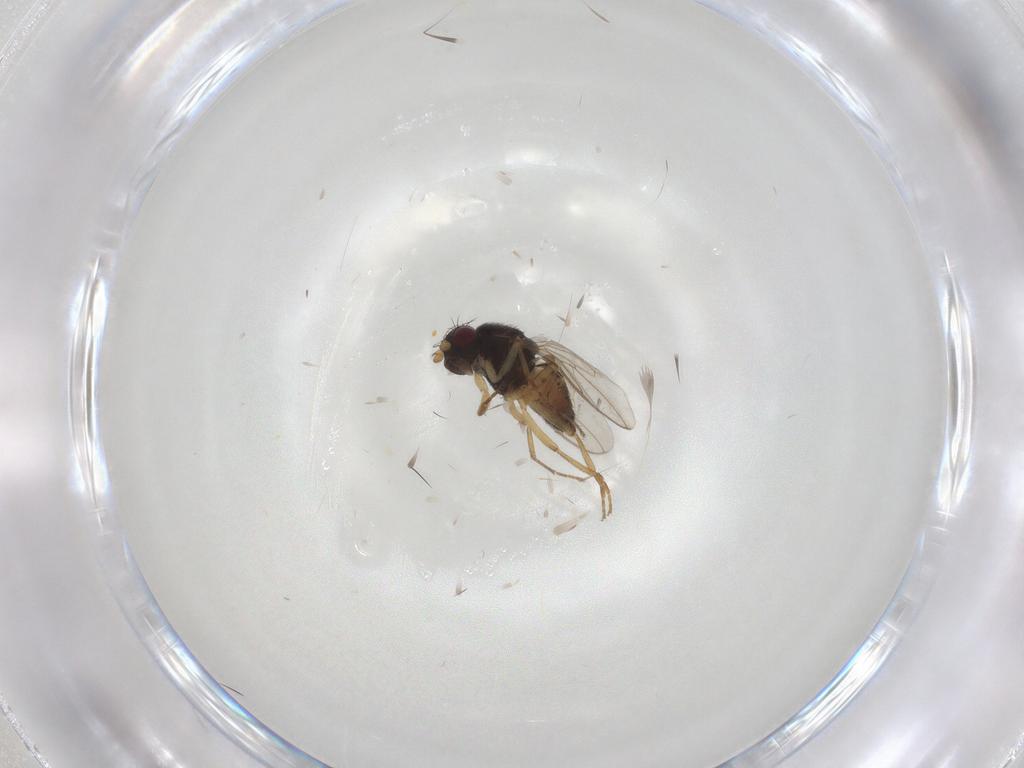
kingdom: Animalia
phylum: Arthropoda
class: Insecta
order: Diptera
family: Sphaeroceridae
